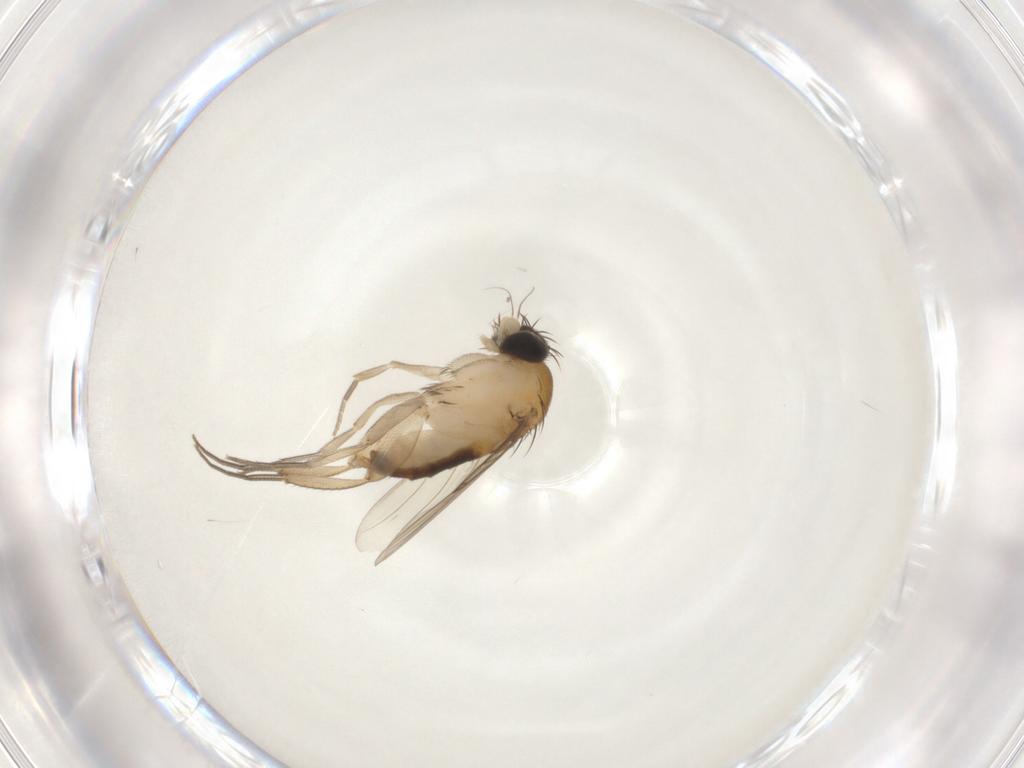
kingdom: Animalia
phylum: Arthropoda
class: Insecta
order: Diptera
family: Phoridae
